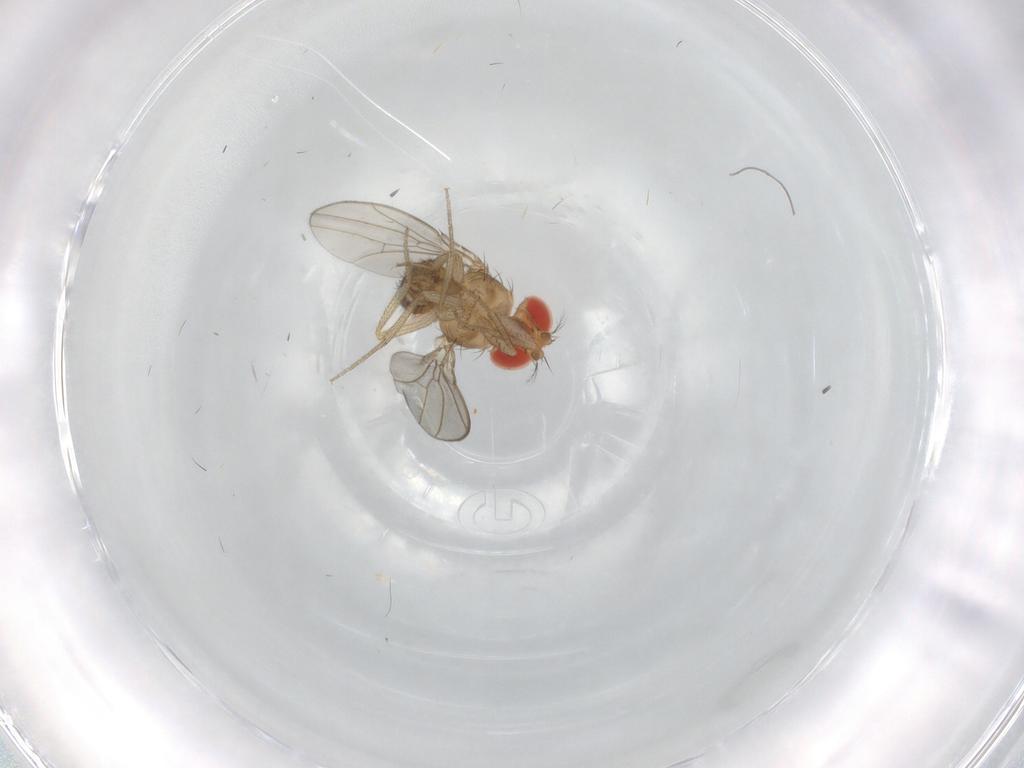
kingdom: Animalia
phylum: Arthropoda
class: Insecta
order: Diptera
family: Drosophilidae
